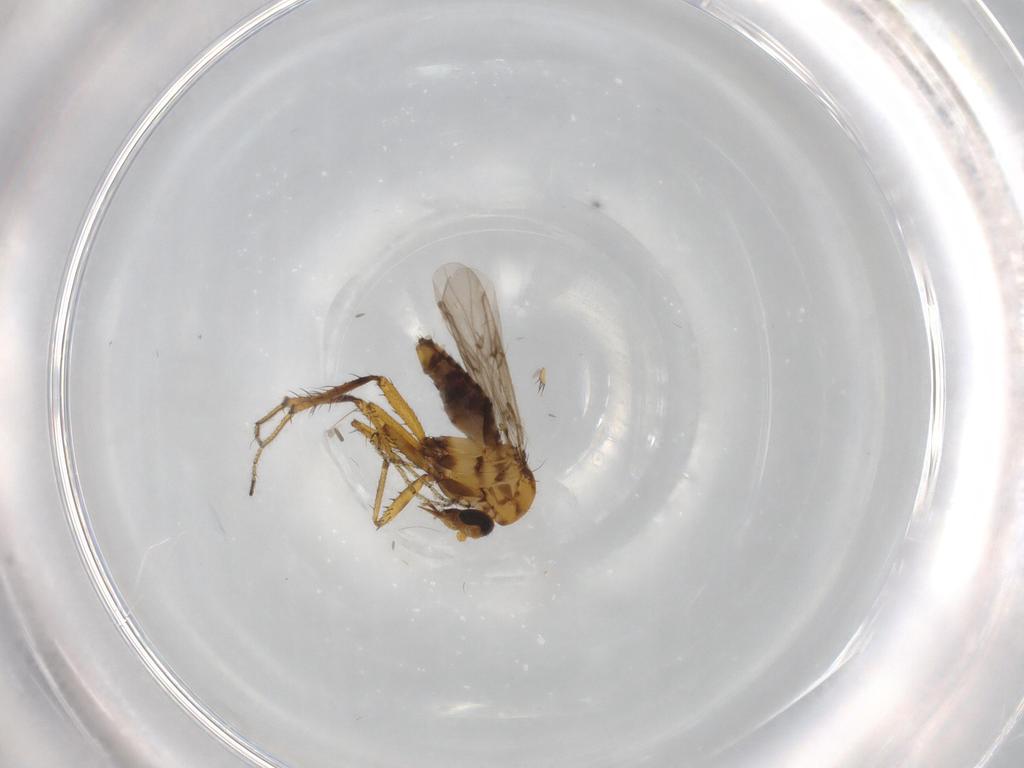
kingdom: Animalia
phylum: Arthropoda
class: Insecta
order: Diptera
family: Ceratopogonidae
